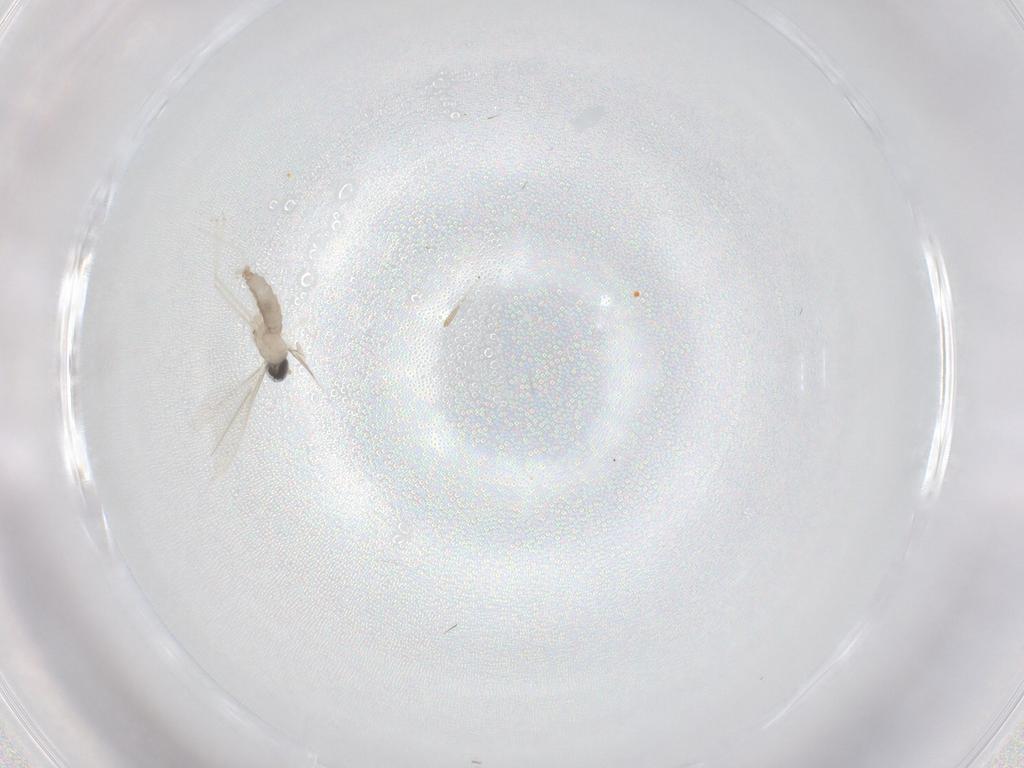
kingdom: Animalia
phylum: Arthropoda
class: Insecta
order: Diptera
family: Cecidomyiidae
